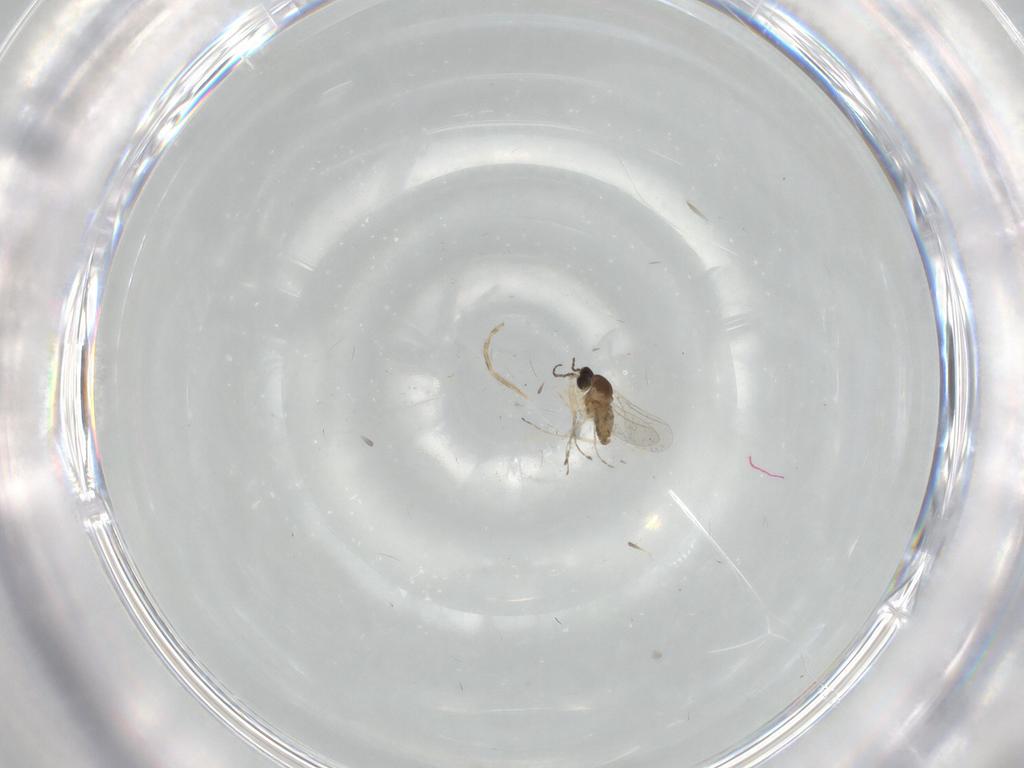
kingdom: Animalia
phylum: Arthropoda
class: Insecta
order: Diptera
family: Cecidomyiidae
